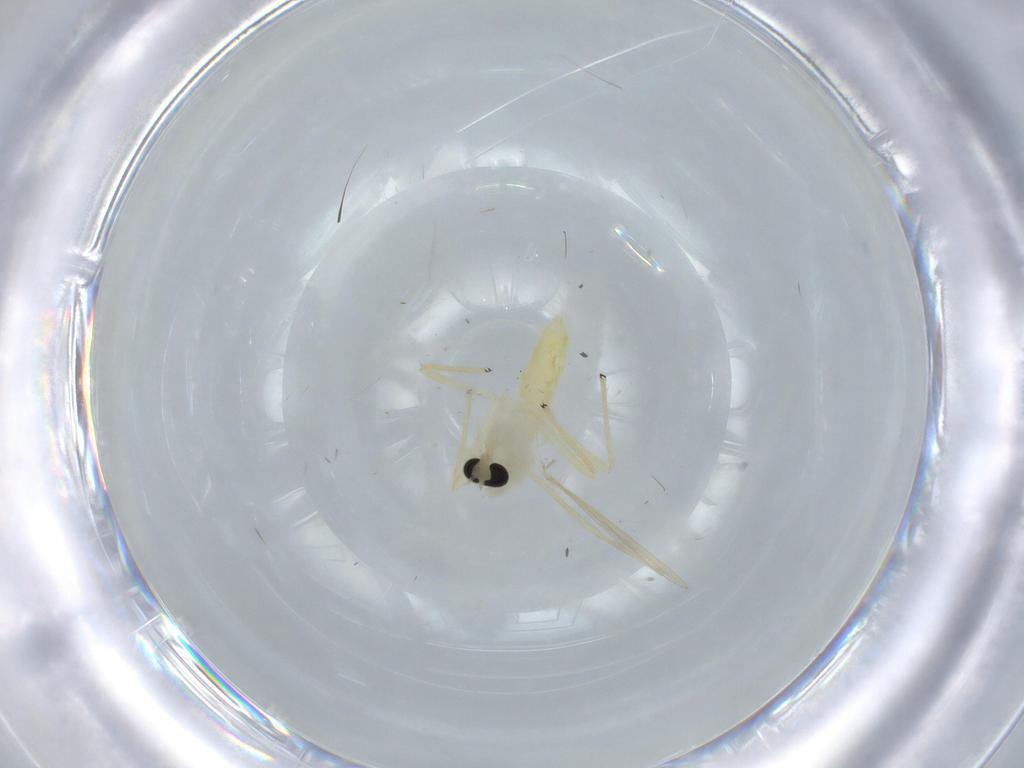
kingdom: Animalia
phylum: Arthropoda
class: Insecta
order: Diptera
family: Chironomidae
